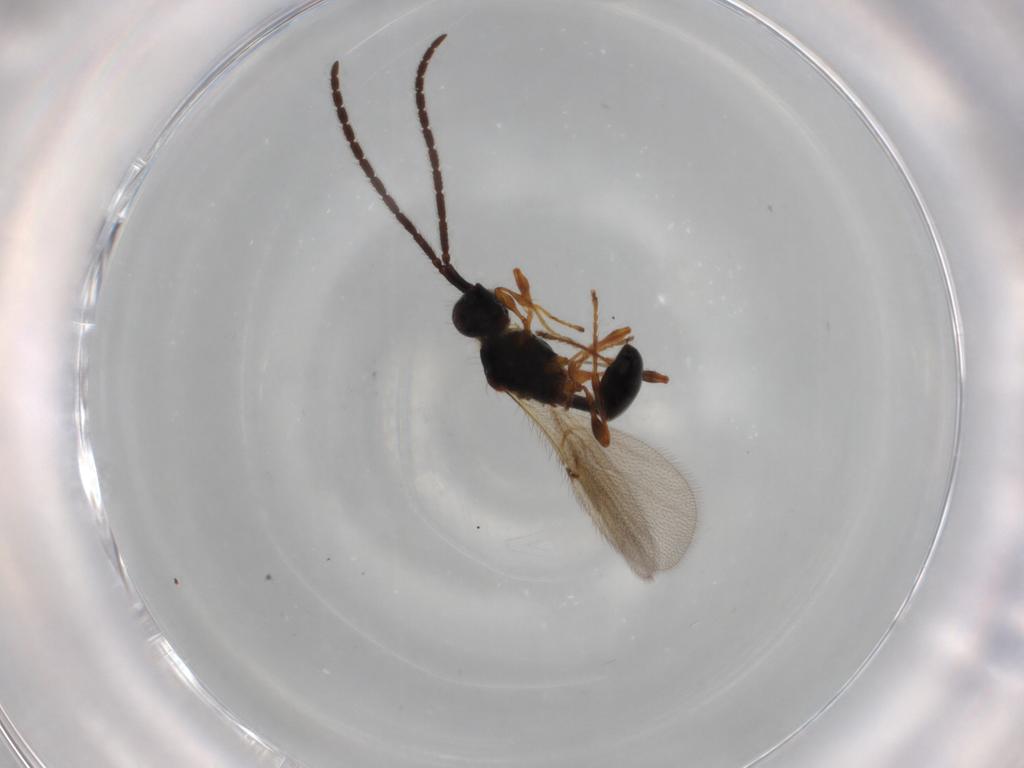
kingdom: Animalia
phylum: Arthropoda
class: Insecta
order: Hymenoptera
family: Diapriidae
